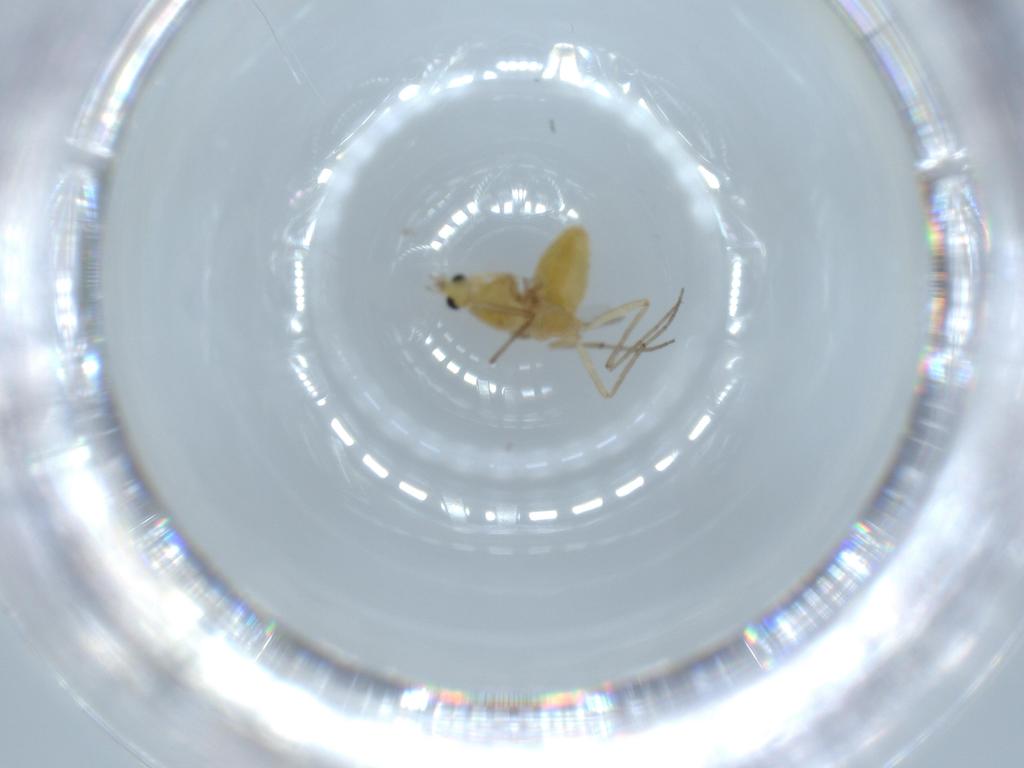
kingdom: Animalia
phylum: Arthropoda
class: Insecta
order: Diptera
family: Chironomidae
